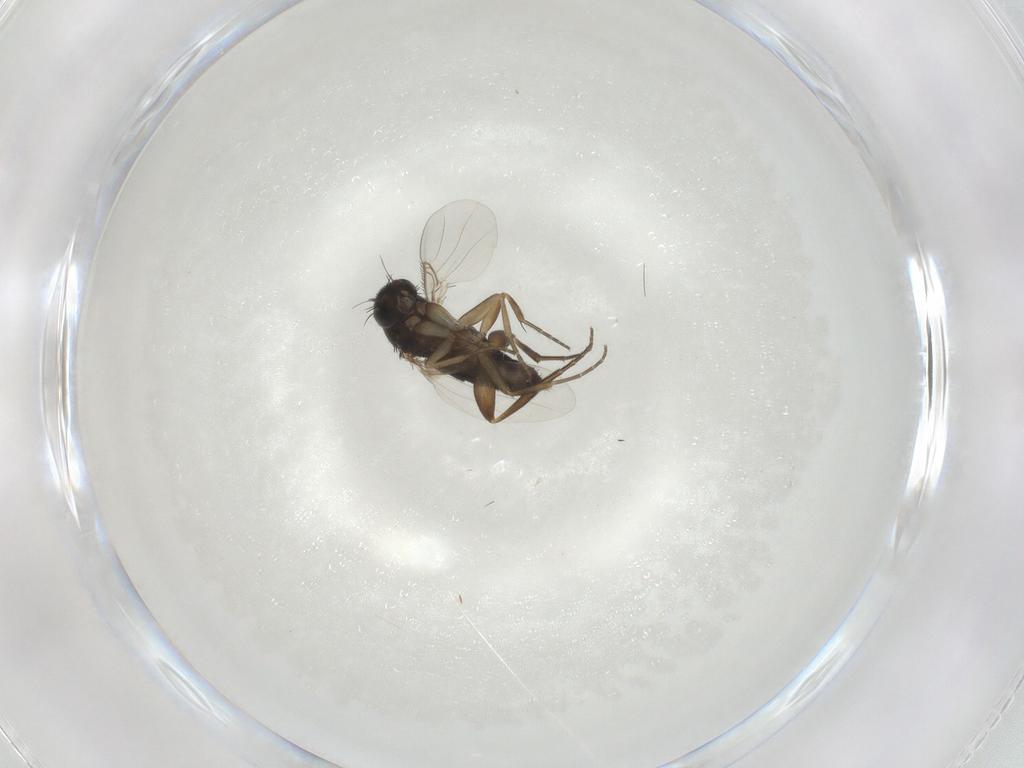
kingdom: Animalia
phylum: Arthropoda
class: Insecta
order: Diptera
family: Phoridae
